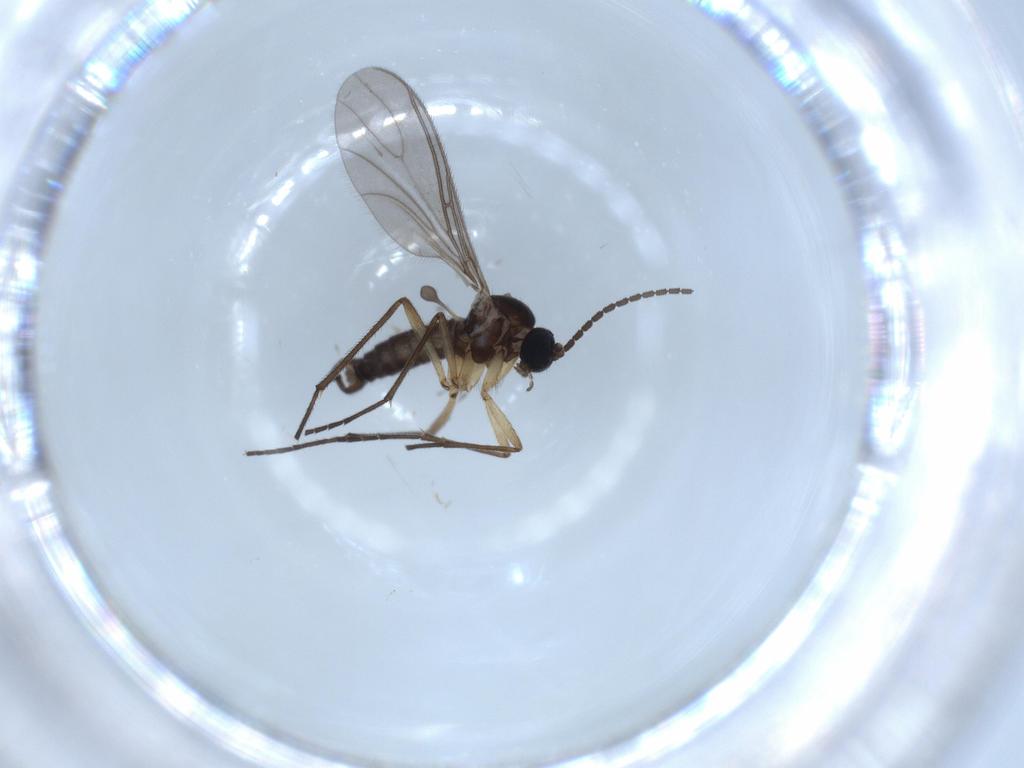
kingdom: Animalia
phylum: Arthropoda
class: Insecta
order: Diptera
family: Sciaridae
